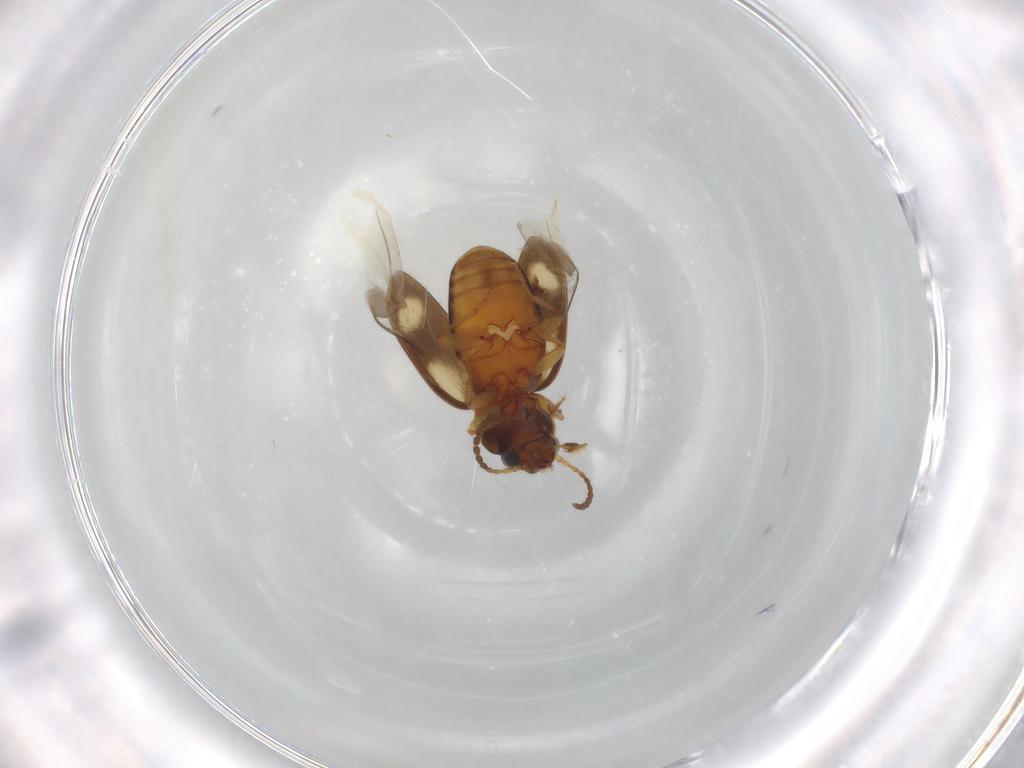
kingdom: Animalia
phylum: Arthropoda
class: Insecta
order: Coleoptera
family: Carabidae
